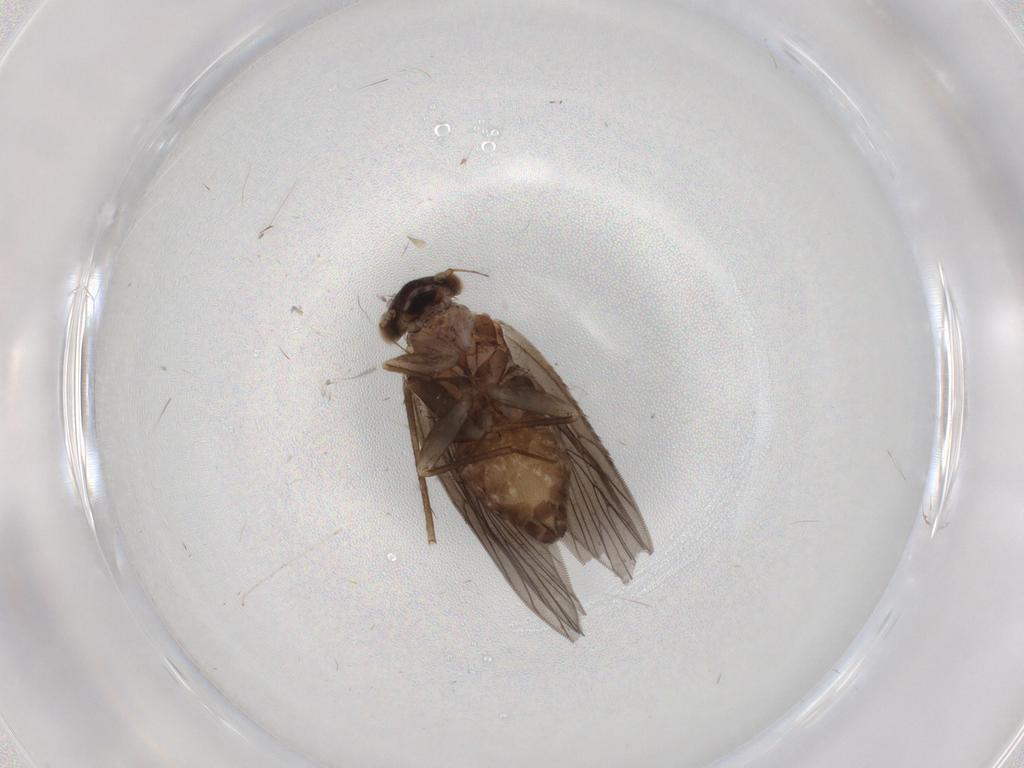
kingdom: Animalia
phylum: Arthropoda
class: Insecta
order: Psocodea
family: Lepidopsocidae
